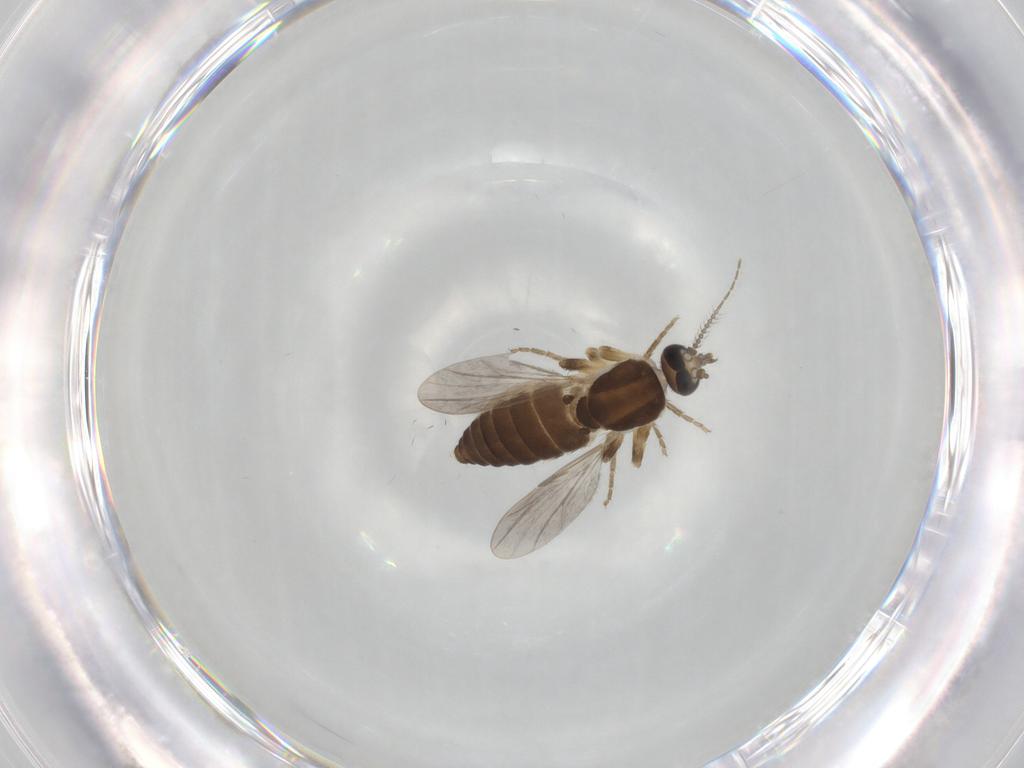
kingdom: Animalia
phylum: Arthropoda
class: Insecta
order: Diptera
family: Ceratopogonidae
